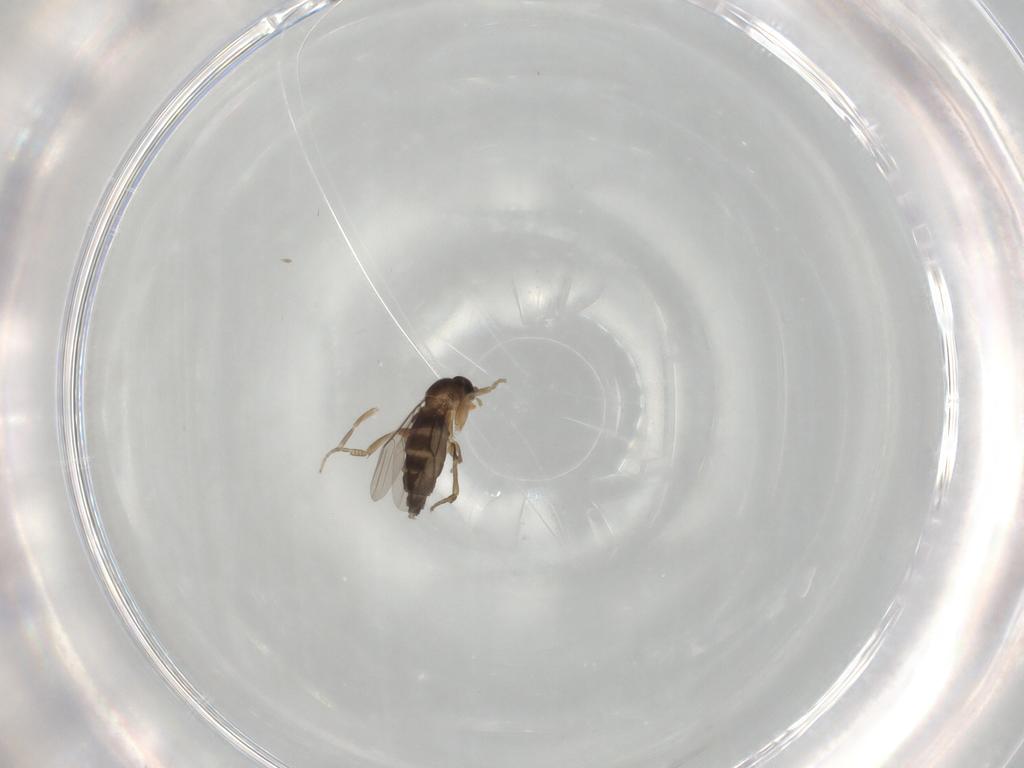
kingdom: Animalia
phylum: Arthropoda
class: Insecta
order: Diptera
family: Phoridae
